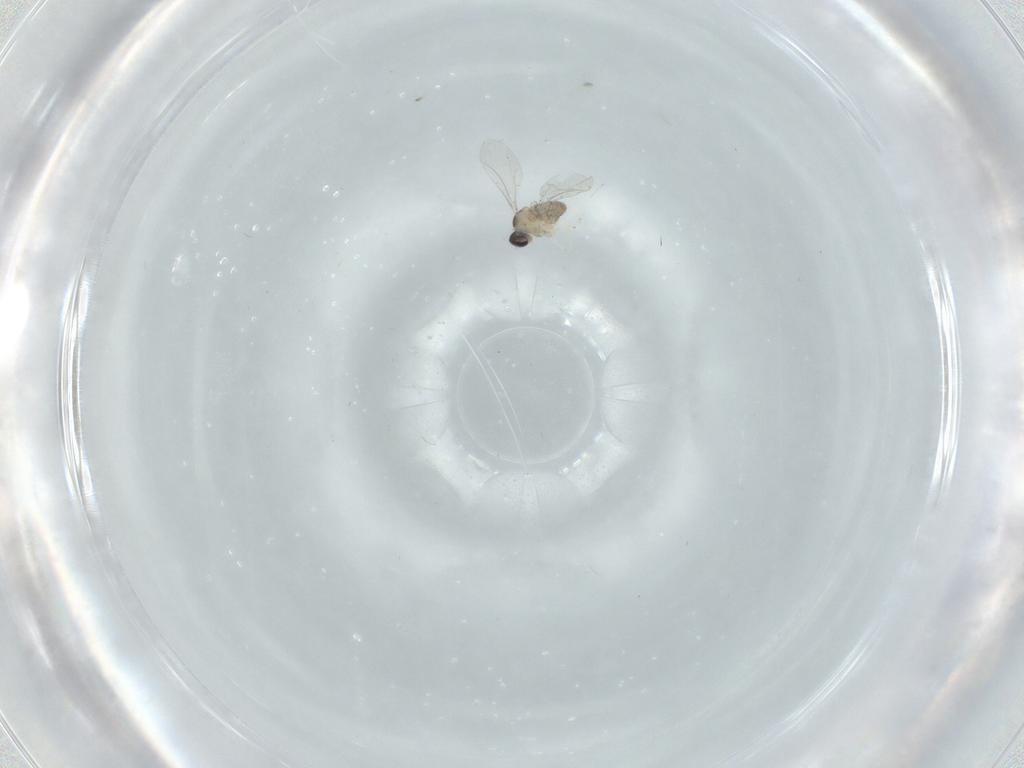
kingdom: Animalia
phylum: Arthropoda
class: Insecta
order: Diptera
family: Cecidomyiidae
